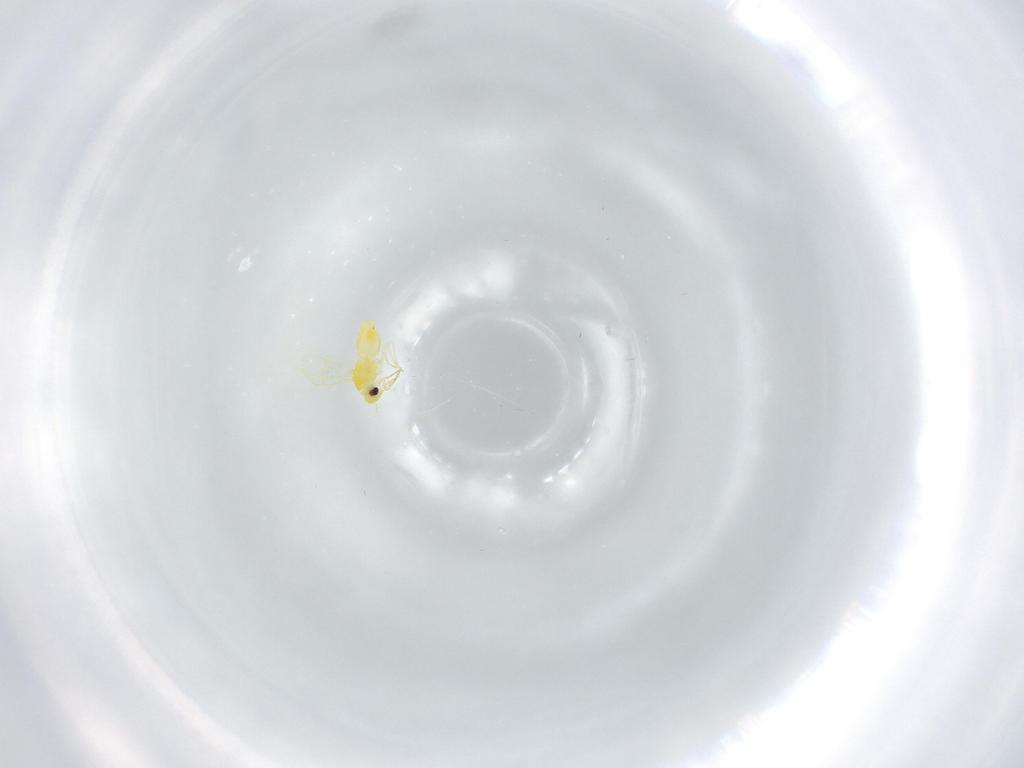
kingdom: Animalia
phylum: Arthropoda
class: Insecta
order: Hemiptera
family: Aleyrodidae
